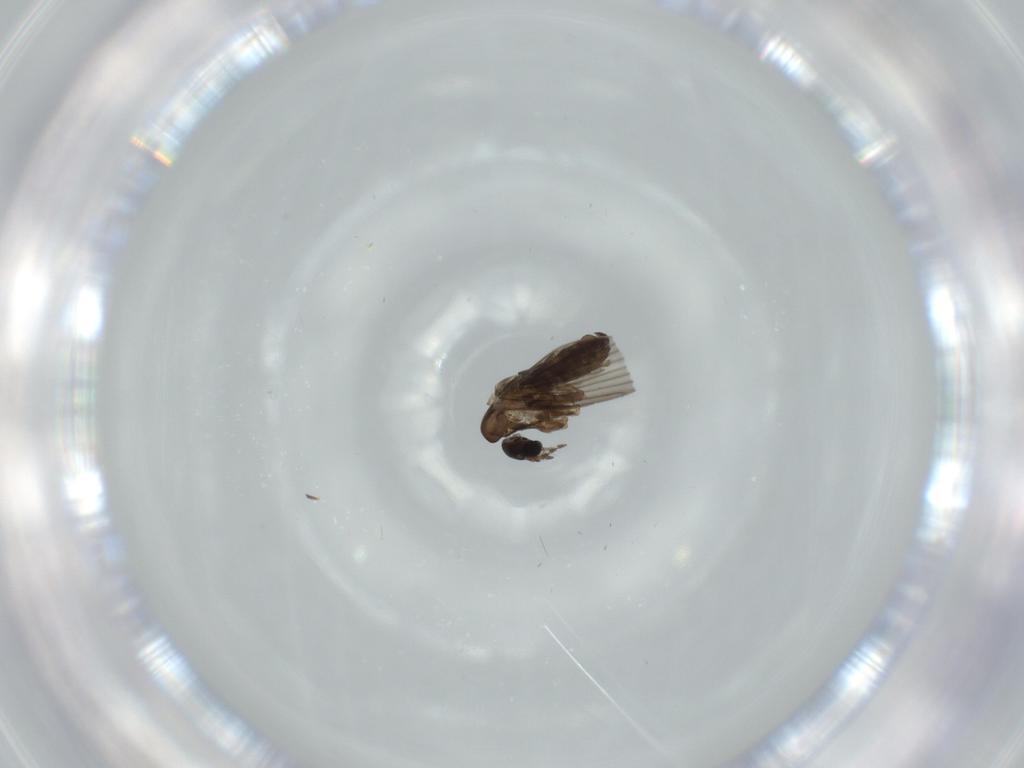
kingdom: Animalia
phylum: Arthropoda
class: Insecta
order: Diptera
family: Psychodidae
